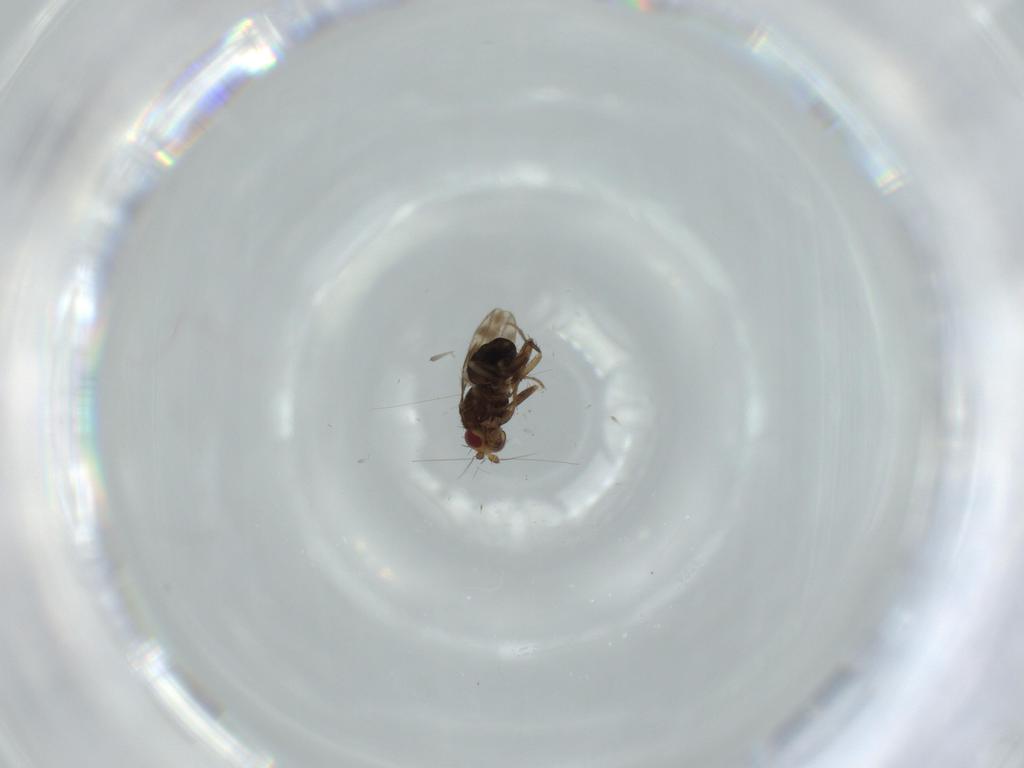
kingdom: Animalia
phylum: Arthropoda
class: Insecta
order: Diptera
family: Sphaeroceridae
